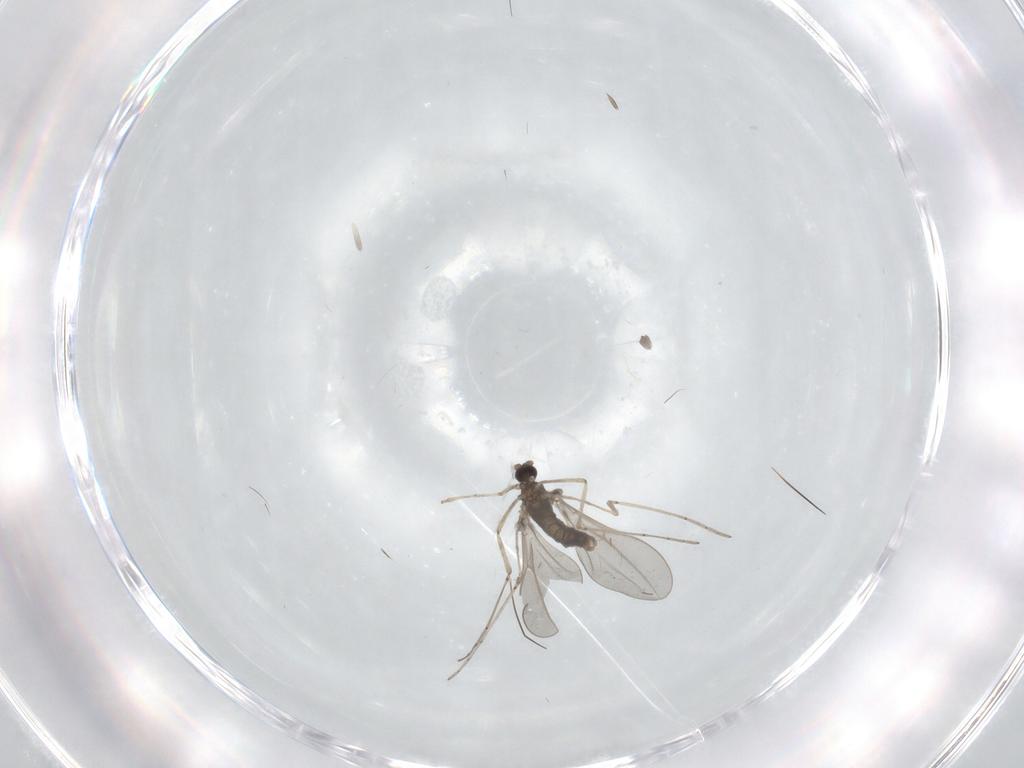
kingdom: Animalia
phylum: Arthropoda
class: Insecta
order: Diptera
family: Cecidomyiidae
